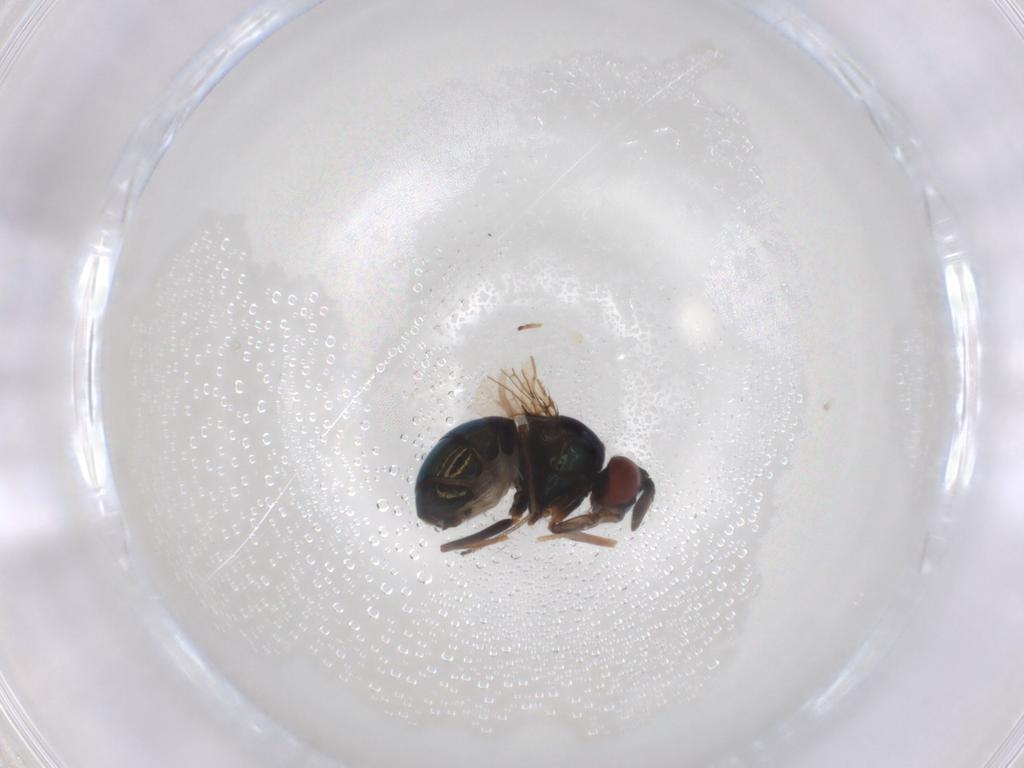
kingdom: Animalia
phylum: Arthropoda
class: Insecta
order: Diptera
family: Ephydridae
